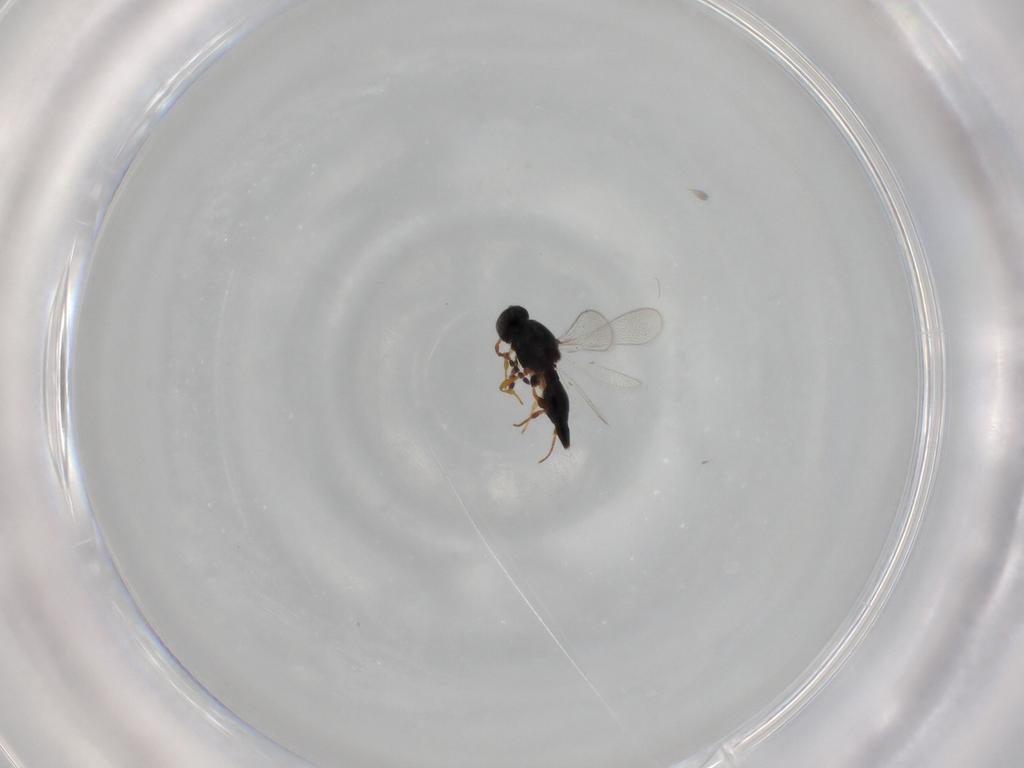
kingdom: Animalia
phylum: Arthropoda
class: Insecta
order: Hymenoptera
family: Platygastridae
